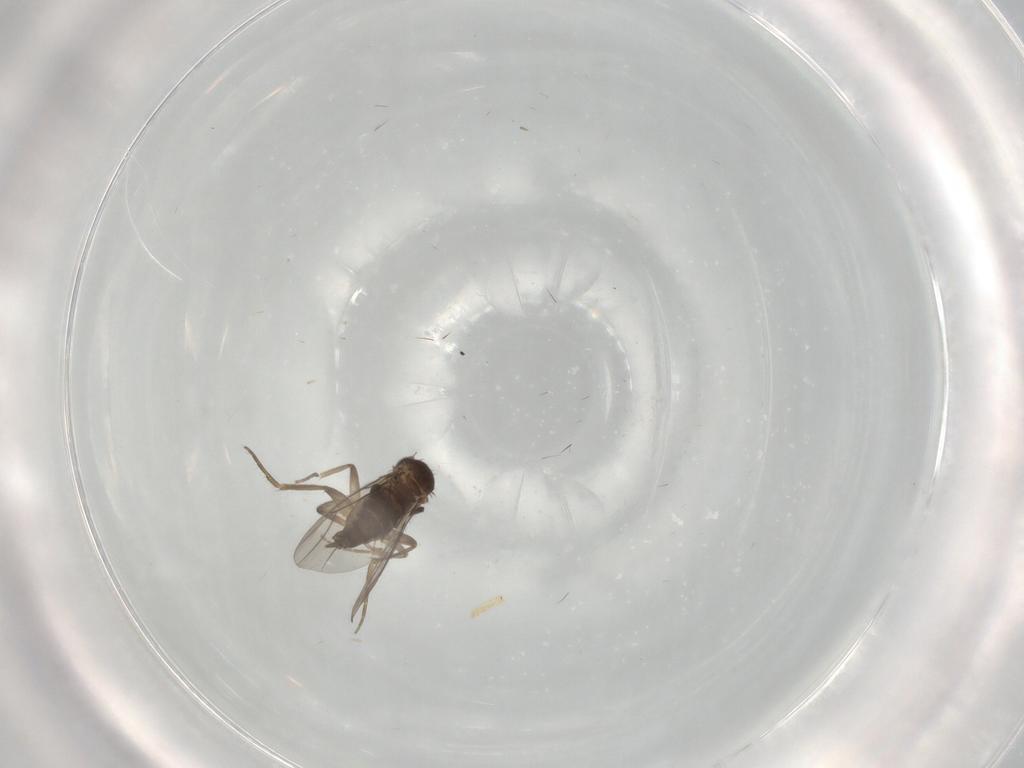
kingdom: Animalia
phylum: Arthropoda
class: Insecta
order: Diptera
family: Phoridae
